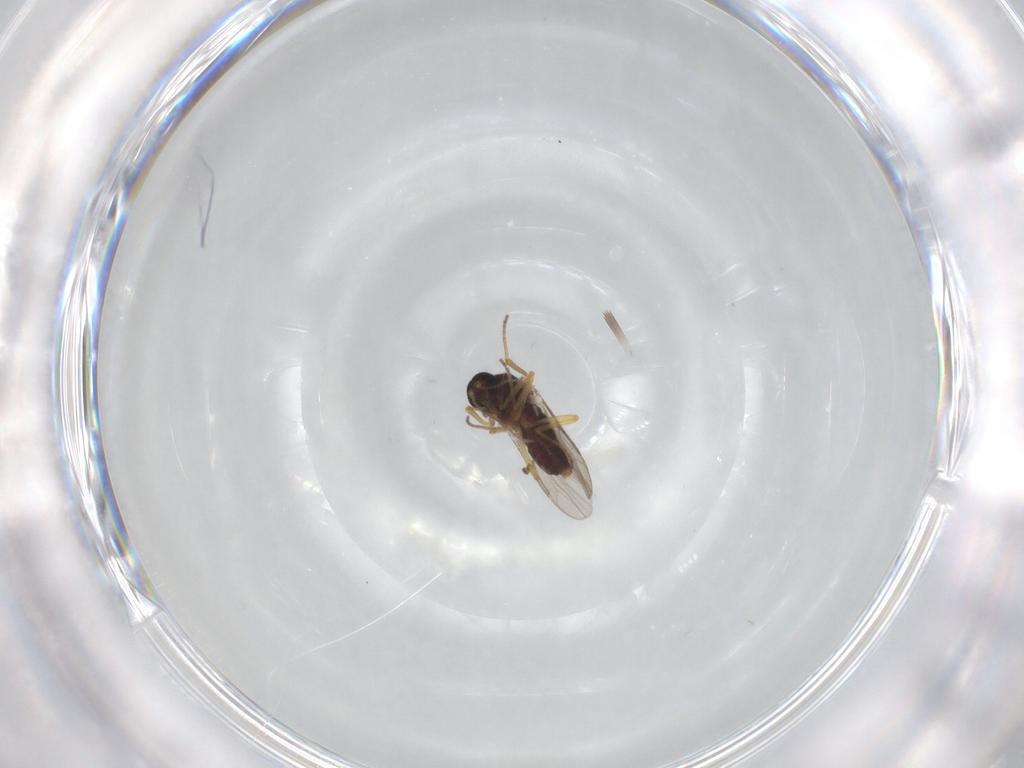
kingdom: Animalia
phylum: Arthropoda
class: Insecta
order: Diptera
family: Ceratopogonidae
